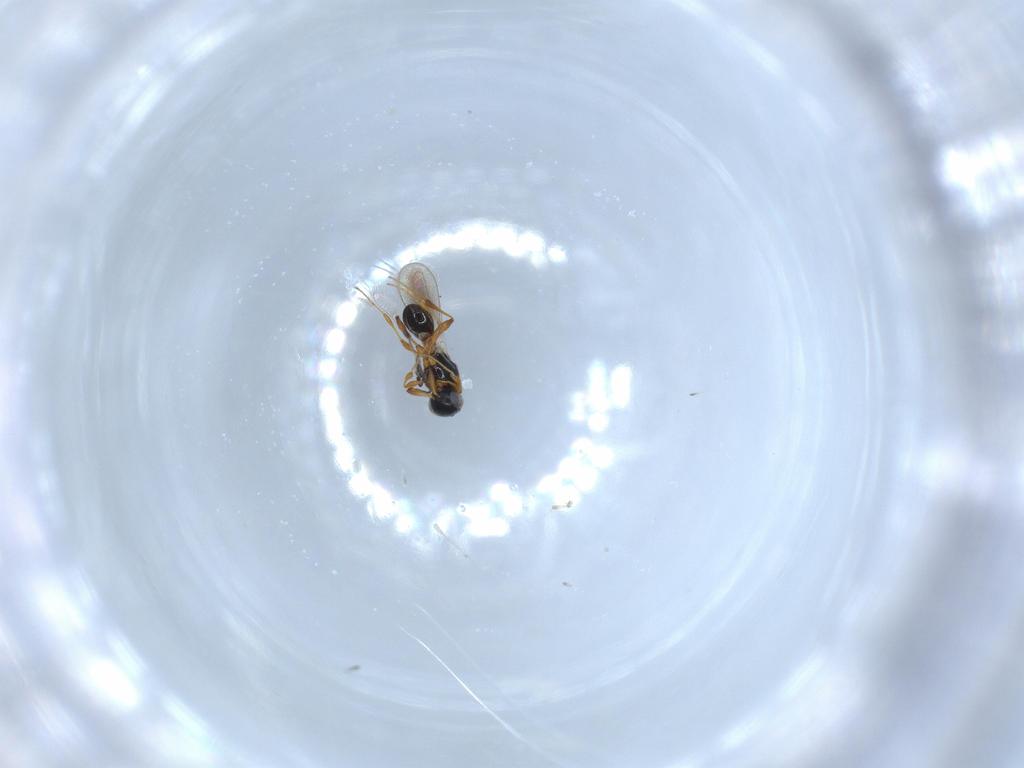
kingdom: Animalia
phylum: Arthropoda
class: Insecta
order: Hymenoptera
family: Platygastridae
